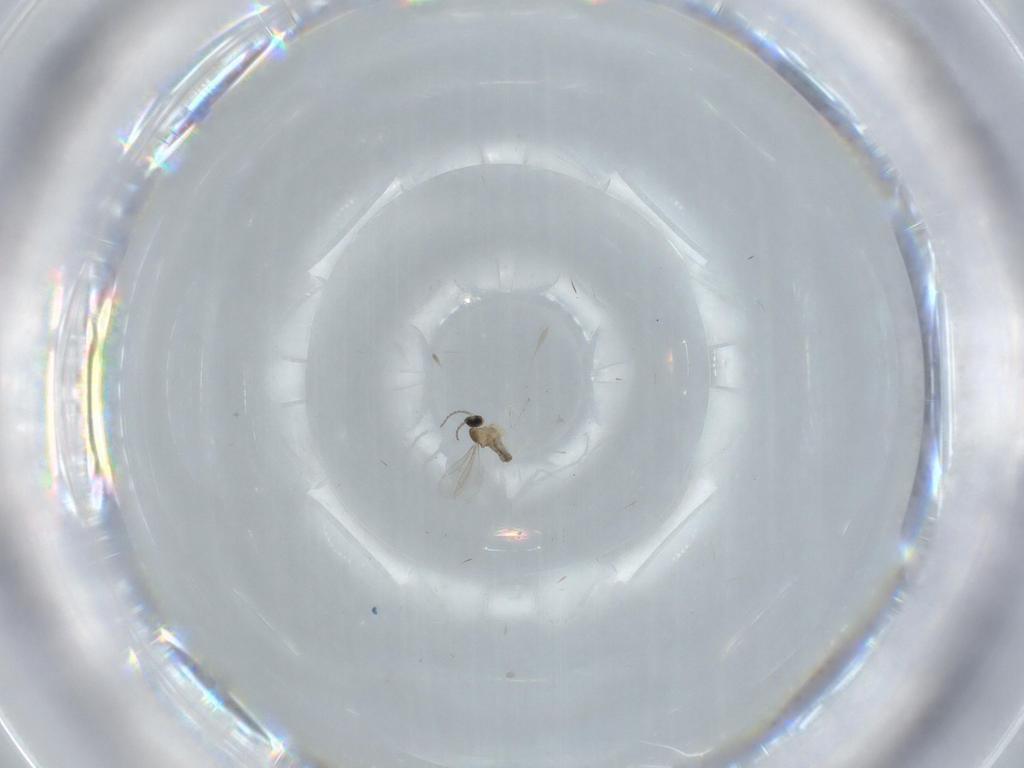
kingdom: Animalia
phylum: Arthropoda
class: Insecta
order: Diptera
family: Cecidomyiidae
